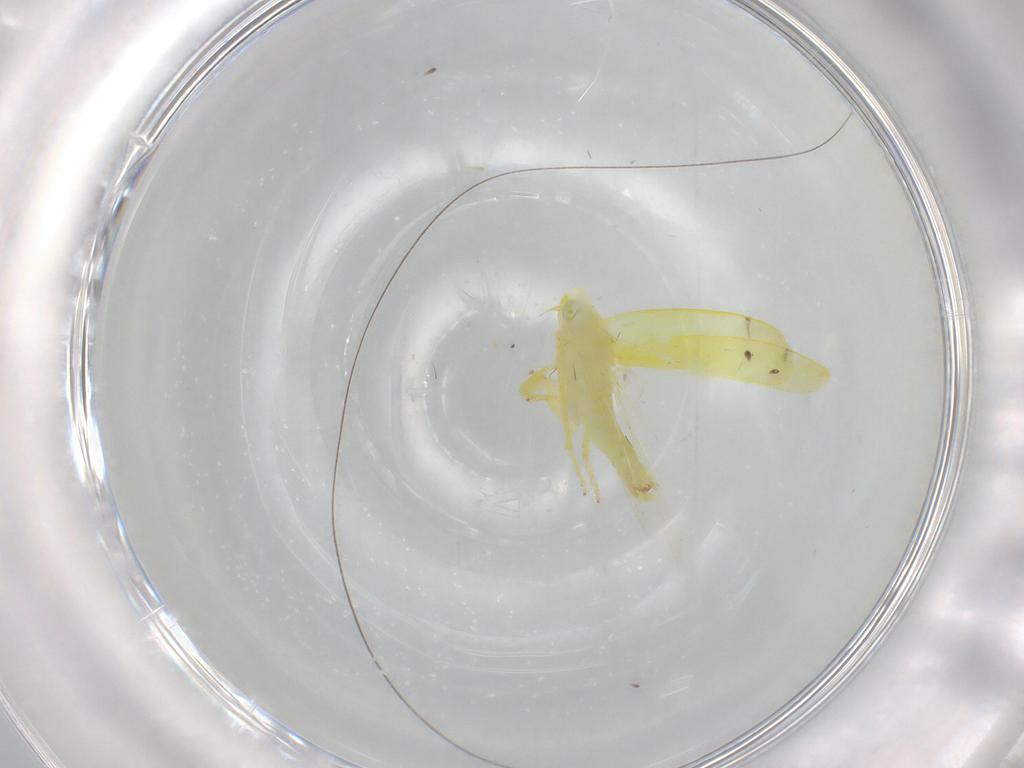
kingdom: Animalia
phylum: Arthropoda
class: Insecta
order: Hemiptera
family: Cicadellidae
